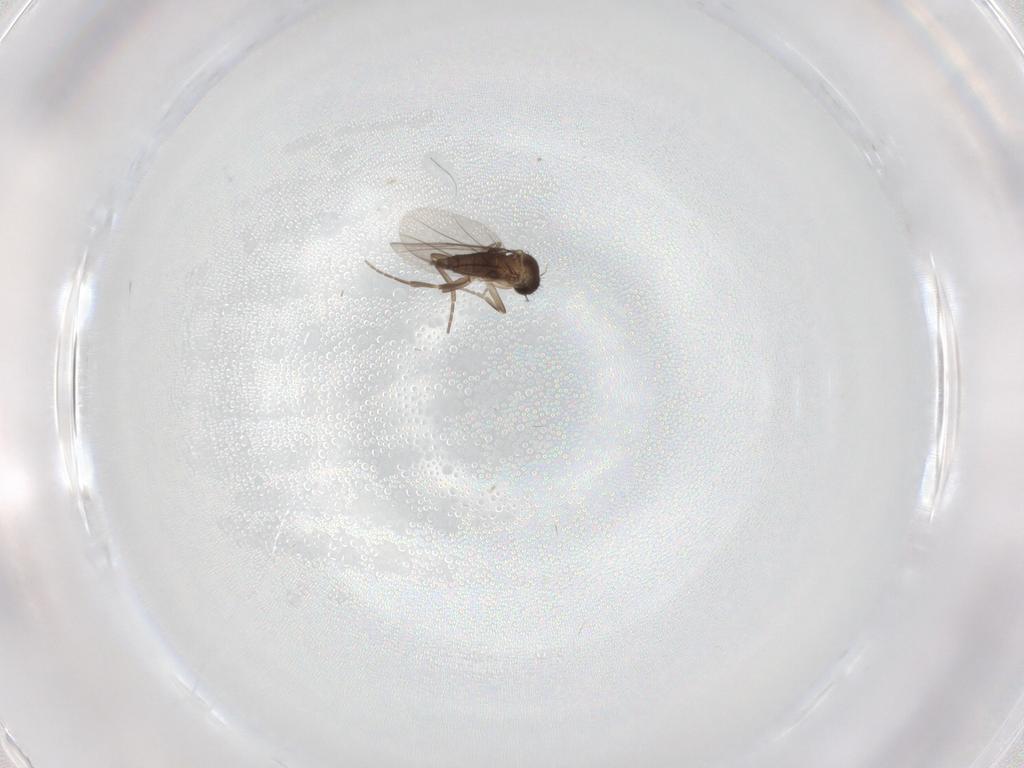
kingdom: Animalia
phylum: Arthropoda
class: Insecta
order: Diptera
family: Phoridae
